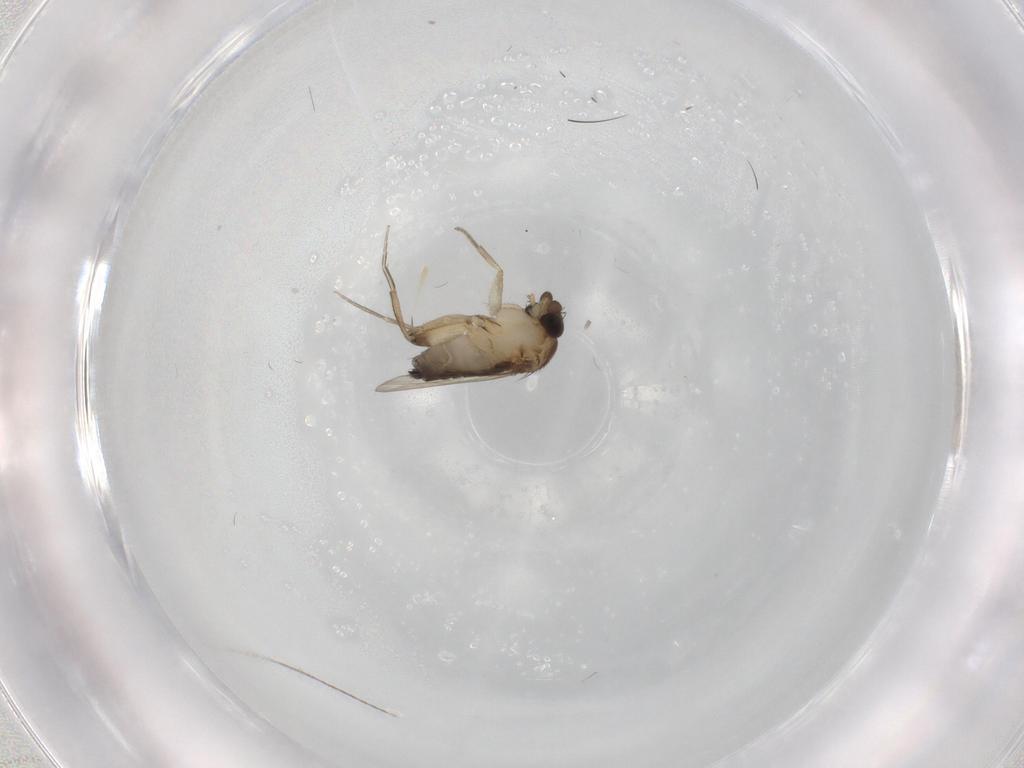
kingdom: Animalia
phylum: Arthropoda
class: Insecta
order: Diptera
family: Phoridae
